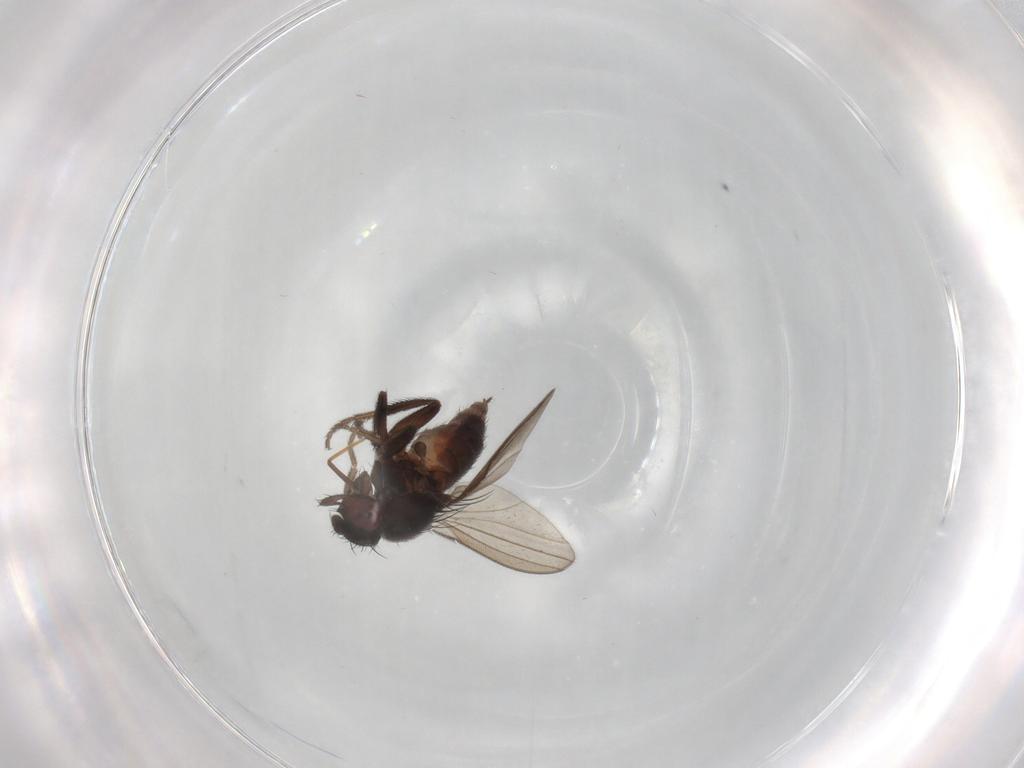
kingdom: Animalia
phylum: Arthropoda
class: Insecta
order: Diptera
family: Milichiidae
